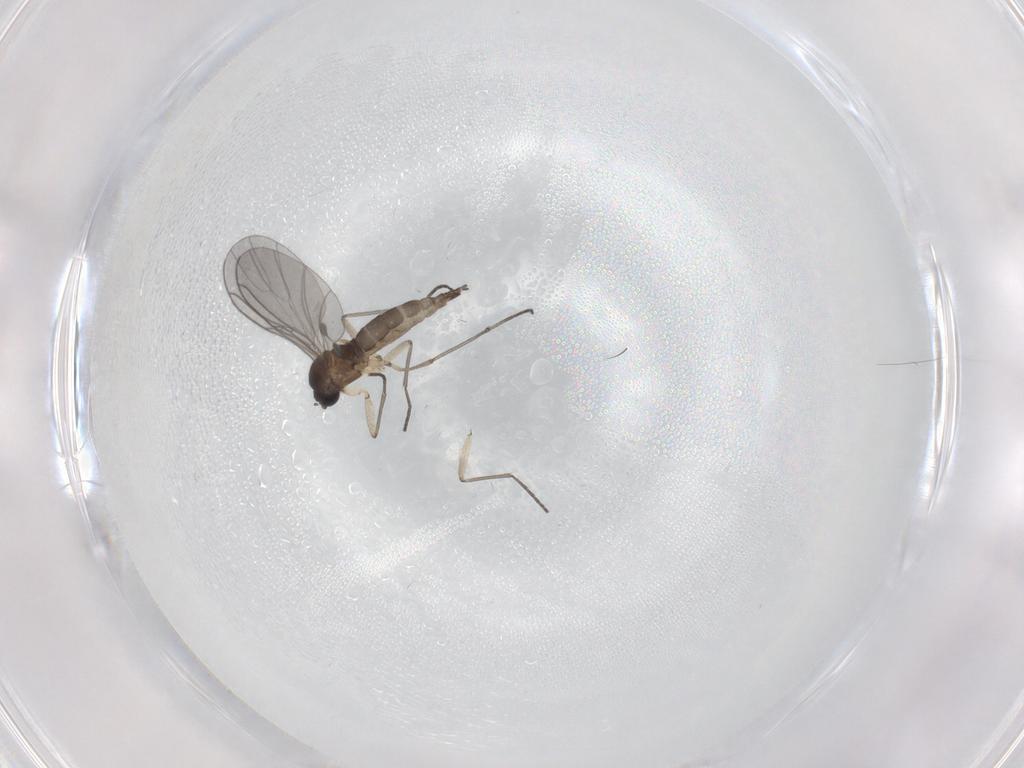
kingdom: Animalia
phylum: Arthropoda
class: Insecta
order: Diptera
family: Sciaridae
